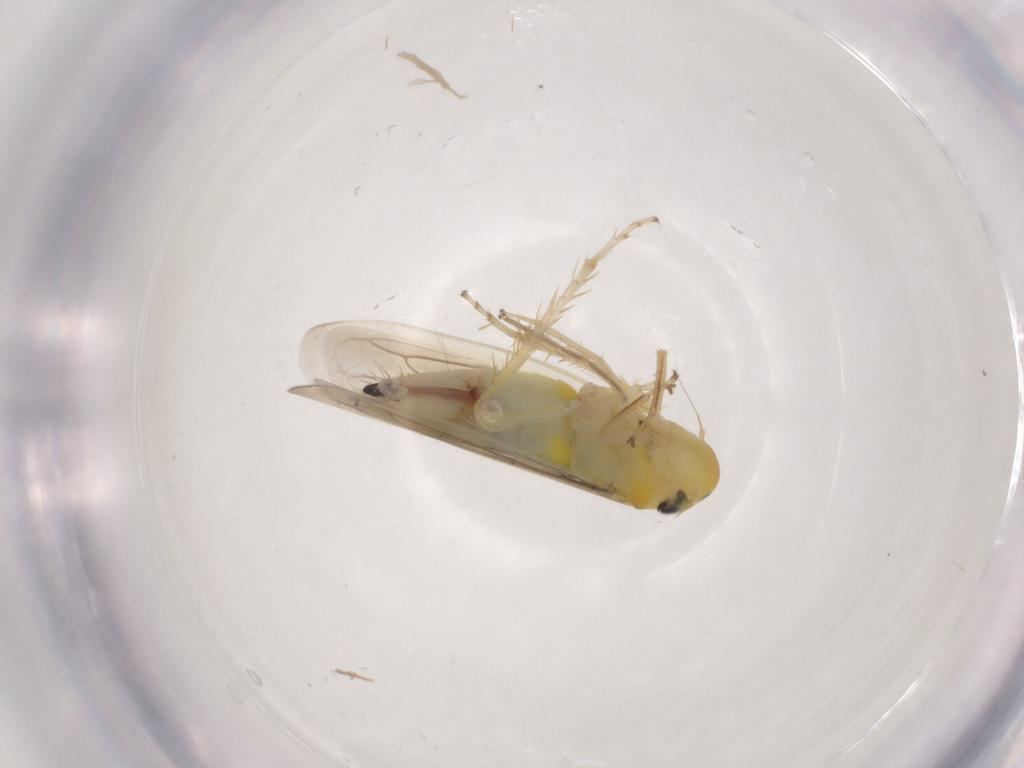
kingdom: Animalia
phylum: Arthropoda
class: Insecta
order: Hemiptera
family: Cicadellidae
